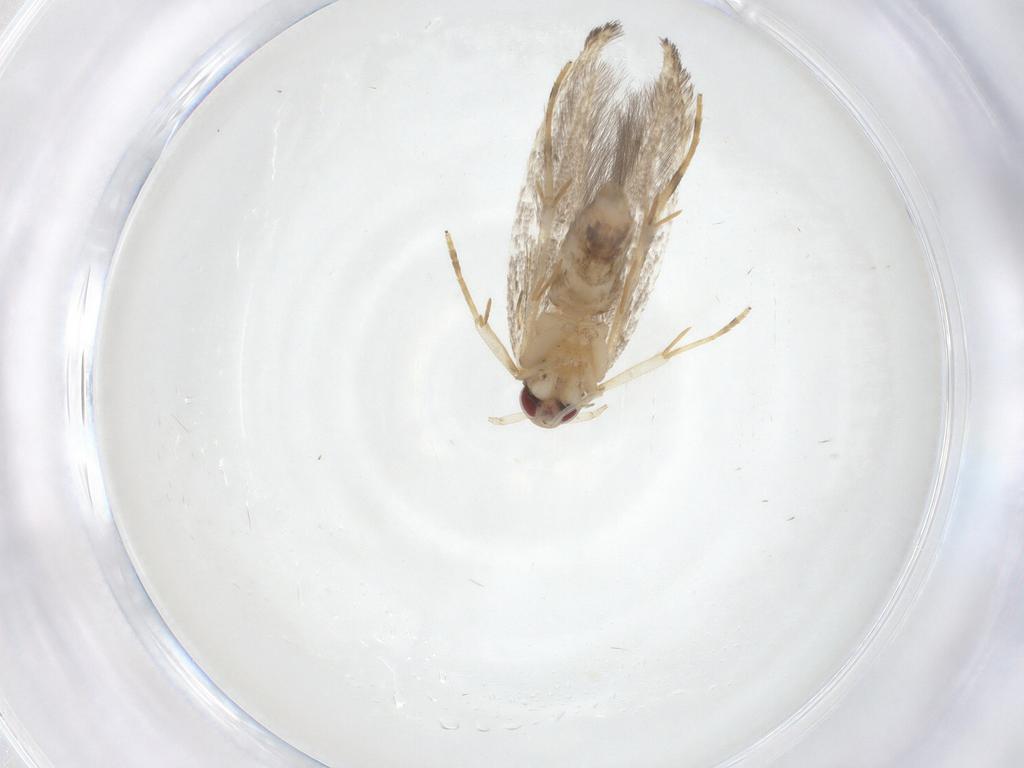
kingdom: Animalia
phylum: Arthropoda
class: Insecta
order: Lepidoptera
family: Cosmopterigidae
